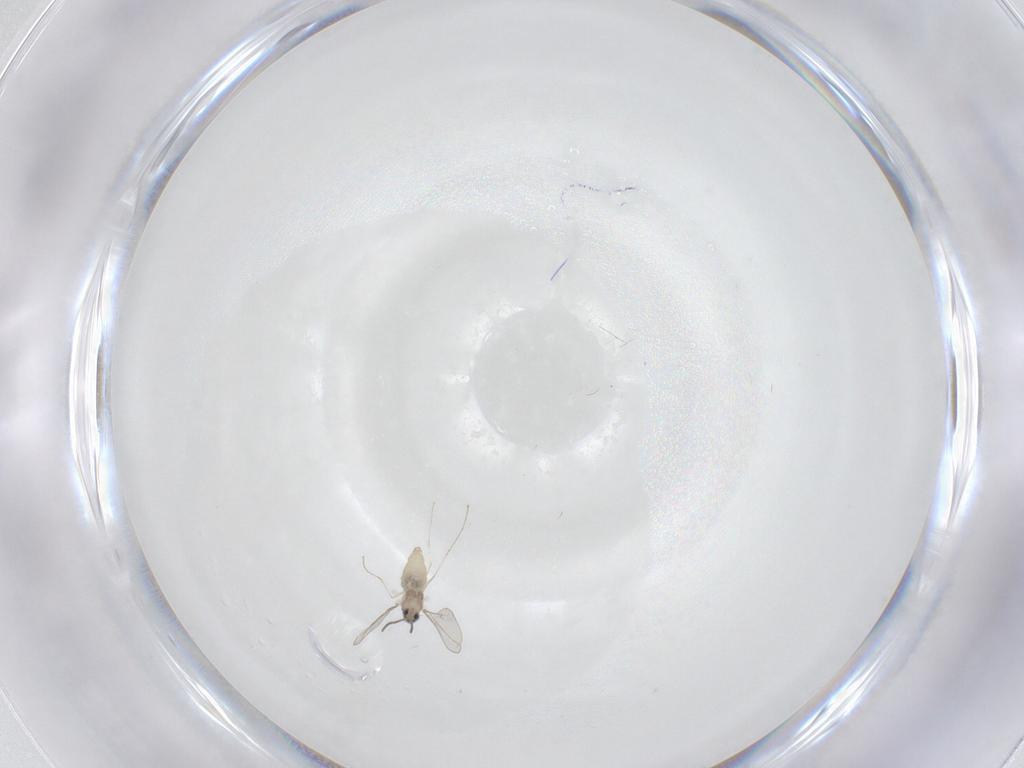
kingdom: Animalia
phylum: Arthropoda
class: Insecta
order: Diptera
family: Cecidomyiidae
